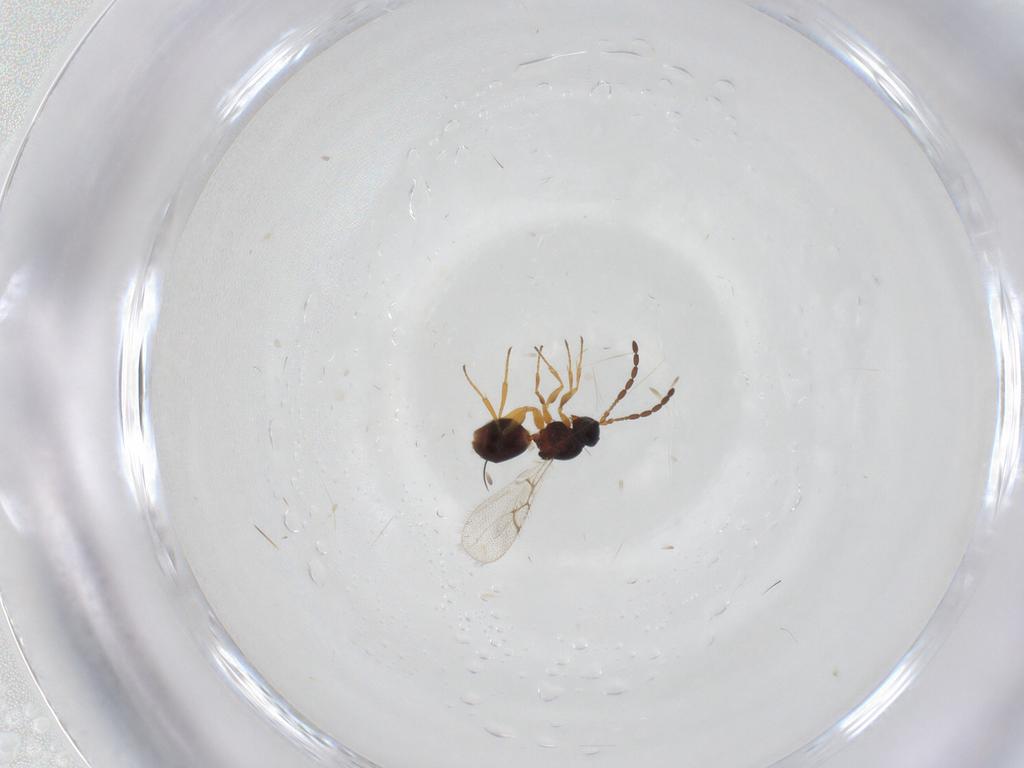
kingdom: Animalia
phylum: Arthropoda
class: Insecta
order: Hymenoptera
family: Figitidae
